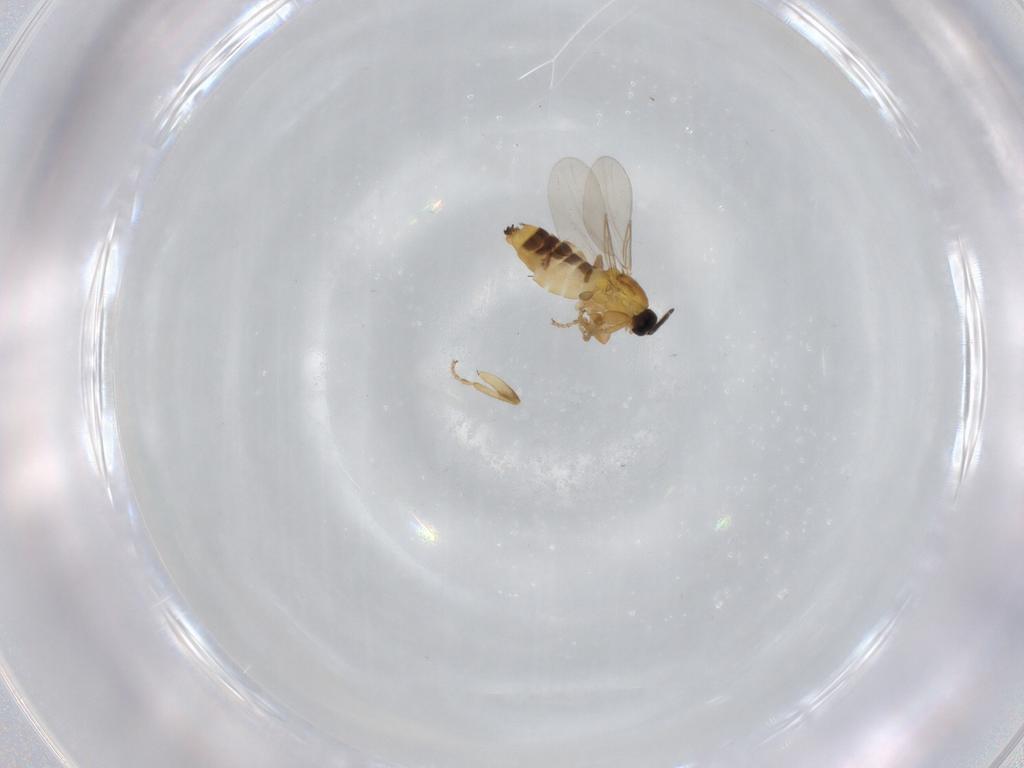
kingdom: Animalia
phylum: Arthropoda
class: Insecta
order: Diptera
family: Scatopsidae
